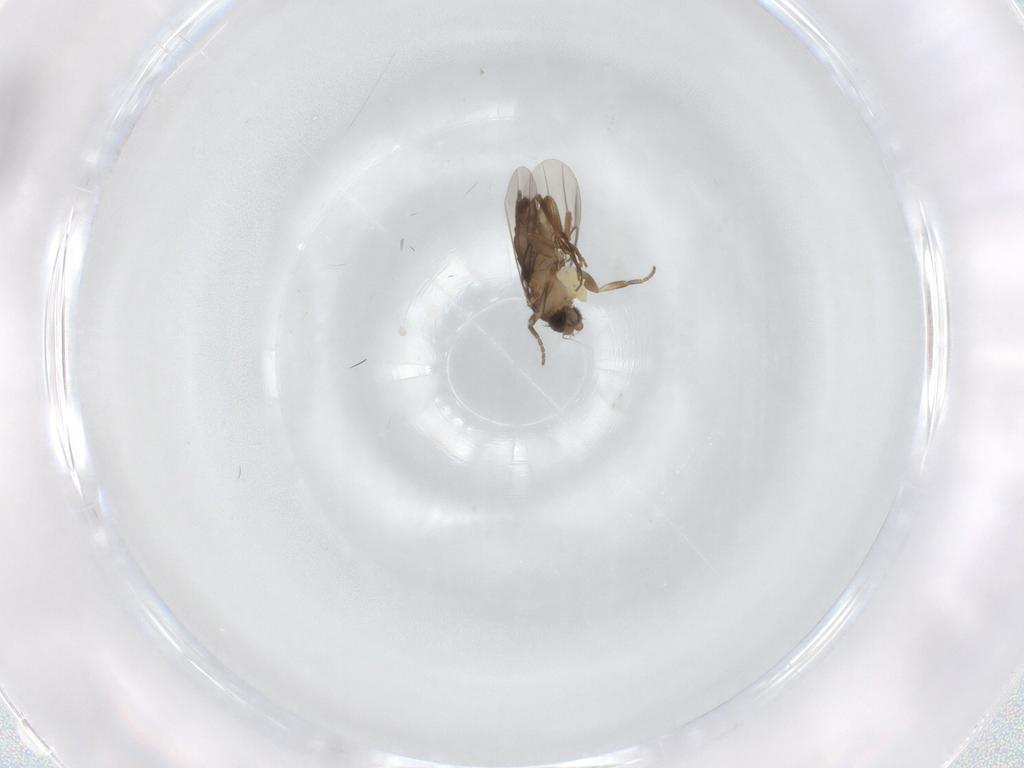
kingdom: Animalia
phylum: Arthropoda
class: Insecta
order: Diptera
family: Phoridae
